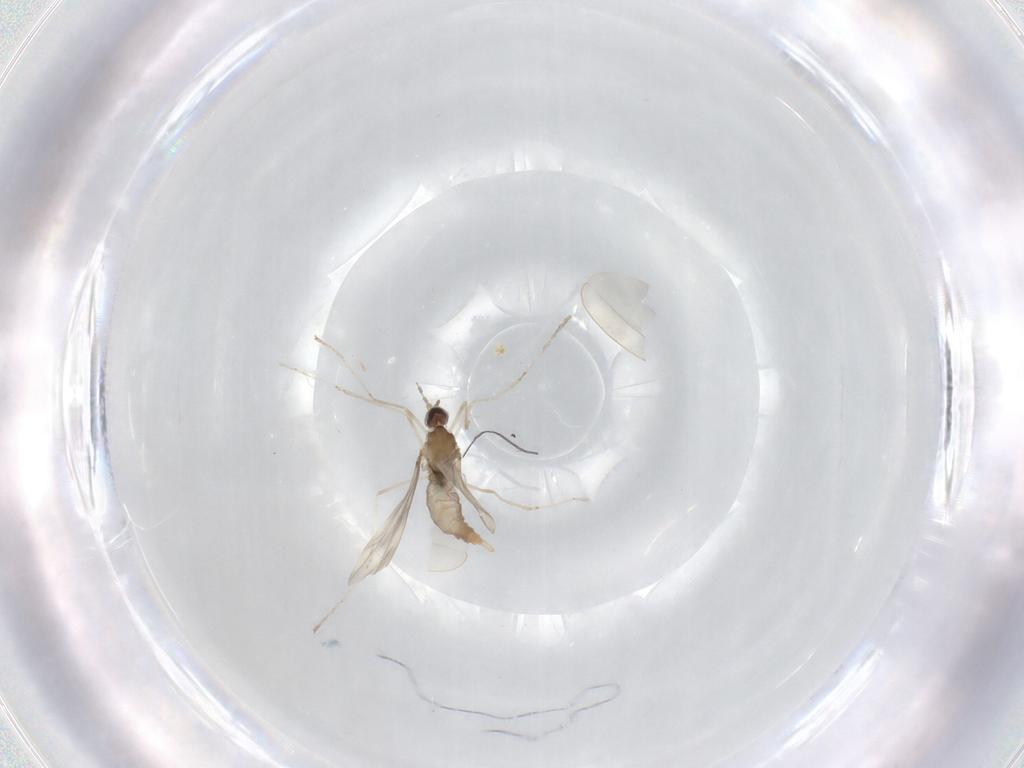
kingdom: Animalia
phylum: Arthropoda
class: Insecta
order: Diptera
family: Cecidomyiidae
